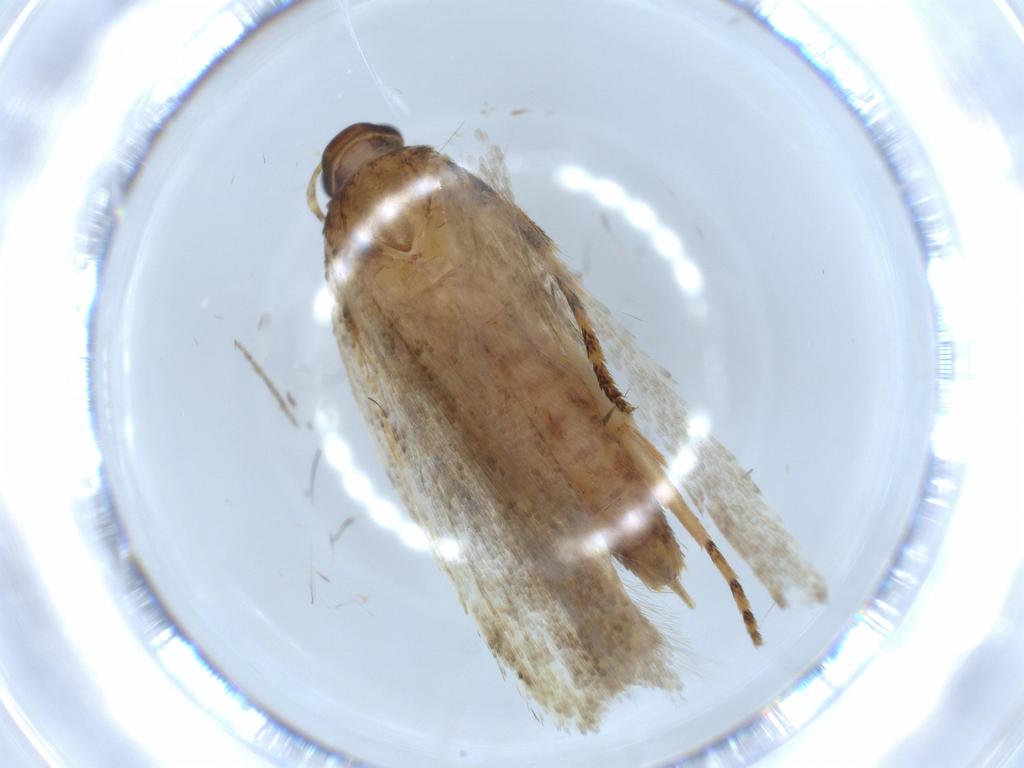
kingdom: Animalia
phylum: Arthropoda
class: Insecta
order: Lepidoptera
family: Gelechiidae
